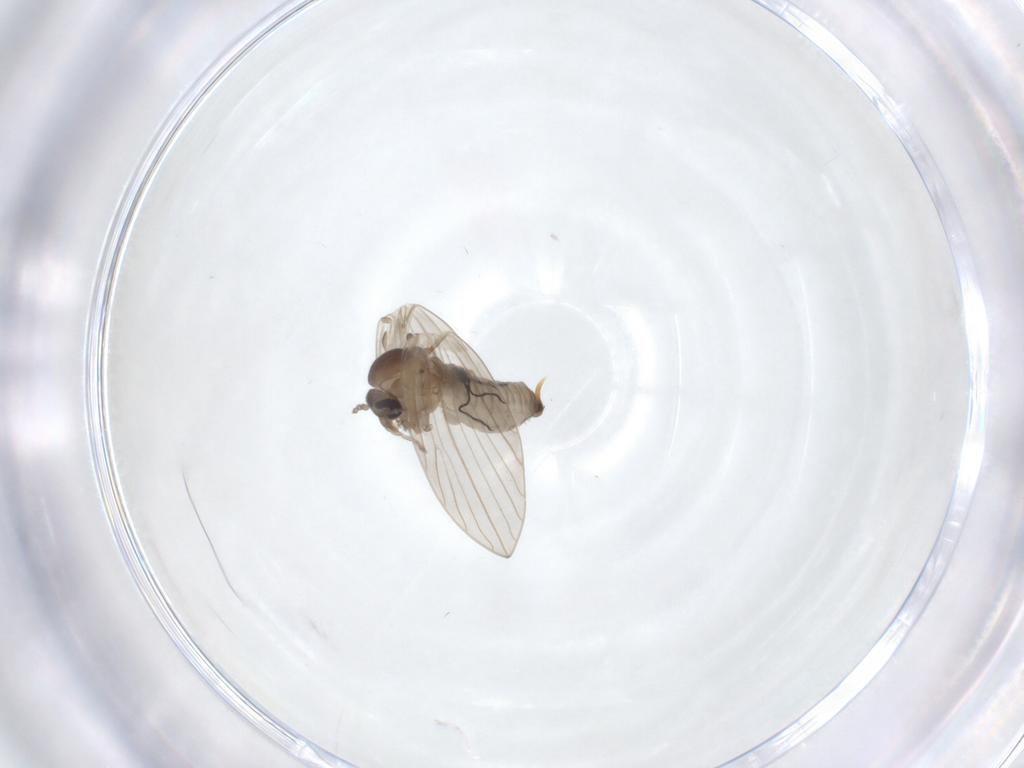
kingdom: Animalia
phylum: Arthropoda
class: Insecta
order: Diptera
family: Psychodidae
